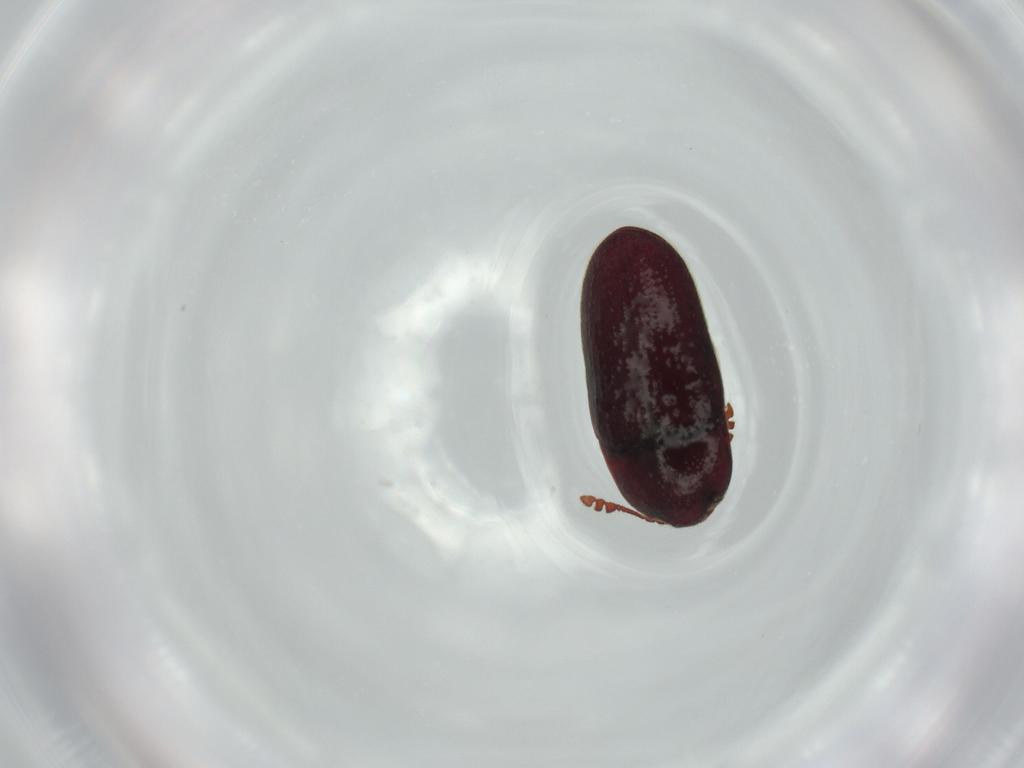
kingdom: Animalia
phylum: Arthropoda
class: Insecta
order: Coleoptera
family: Throscidae
